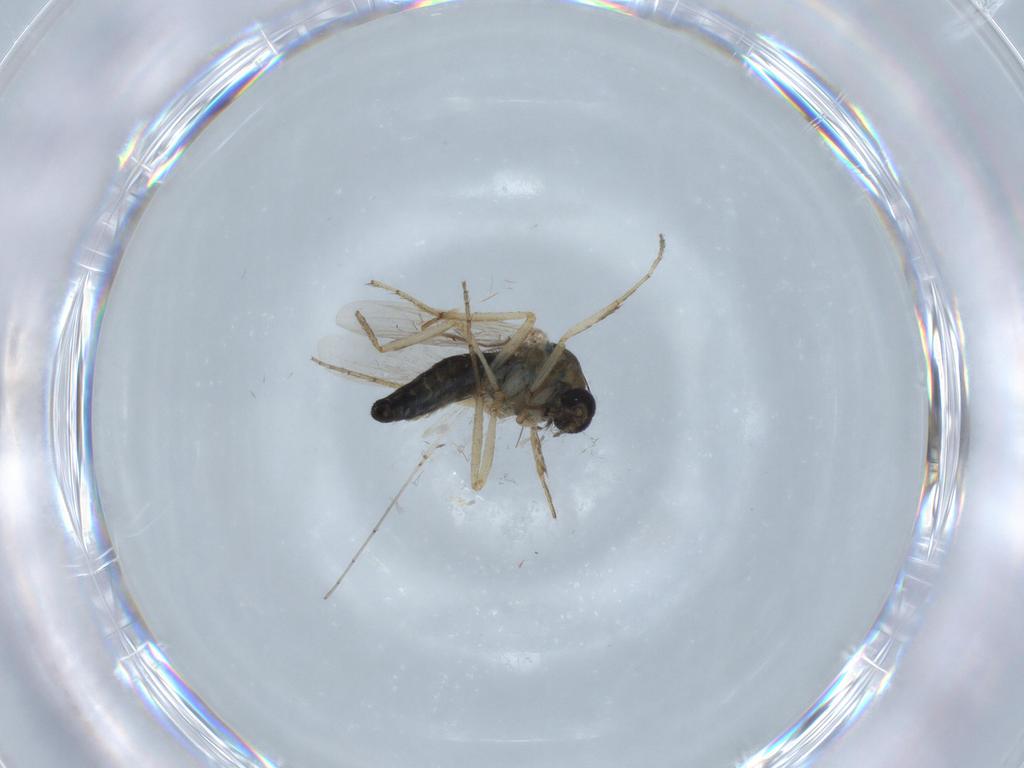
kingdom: Animalia
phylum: Arthropoda
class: Insecta
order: Diptera
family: Ceratopogonidae
